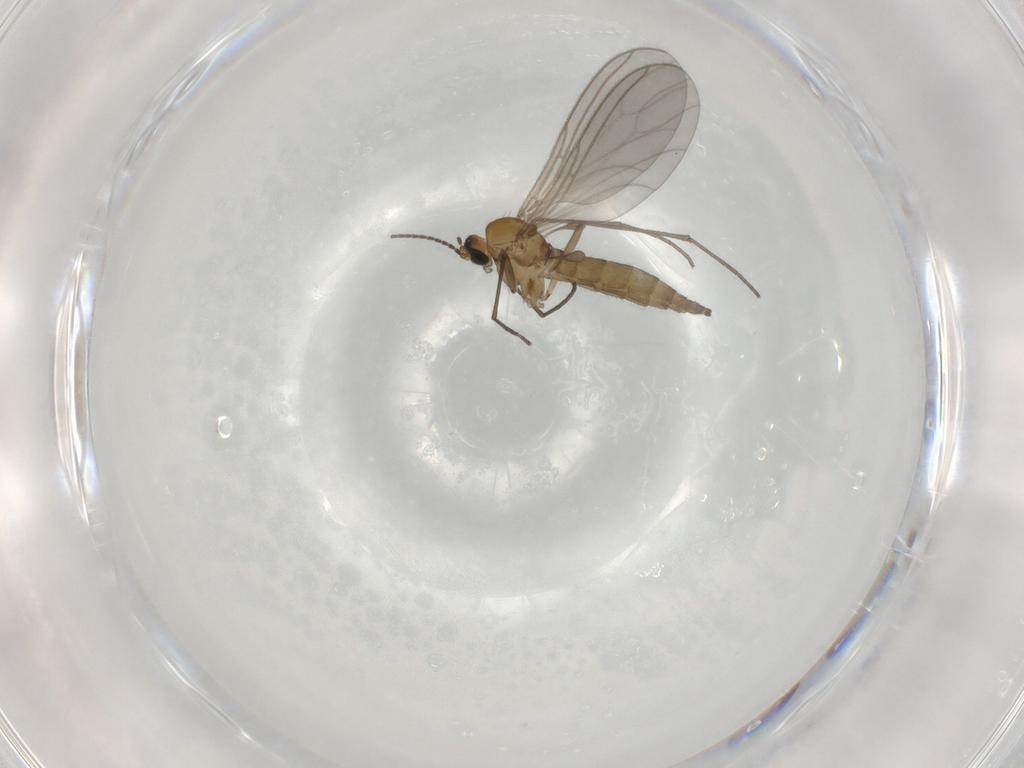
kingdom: Animalia
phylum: Arthropoda
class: Insecta
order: Diptera
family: Sciaridae
